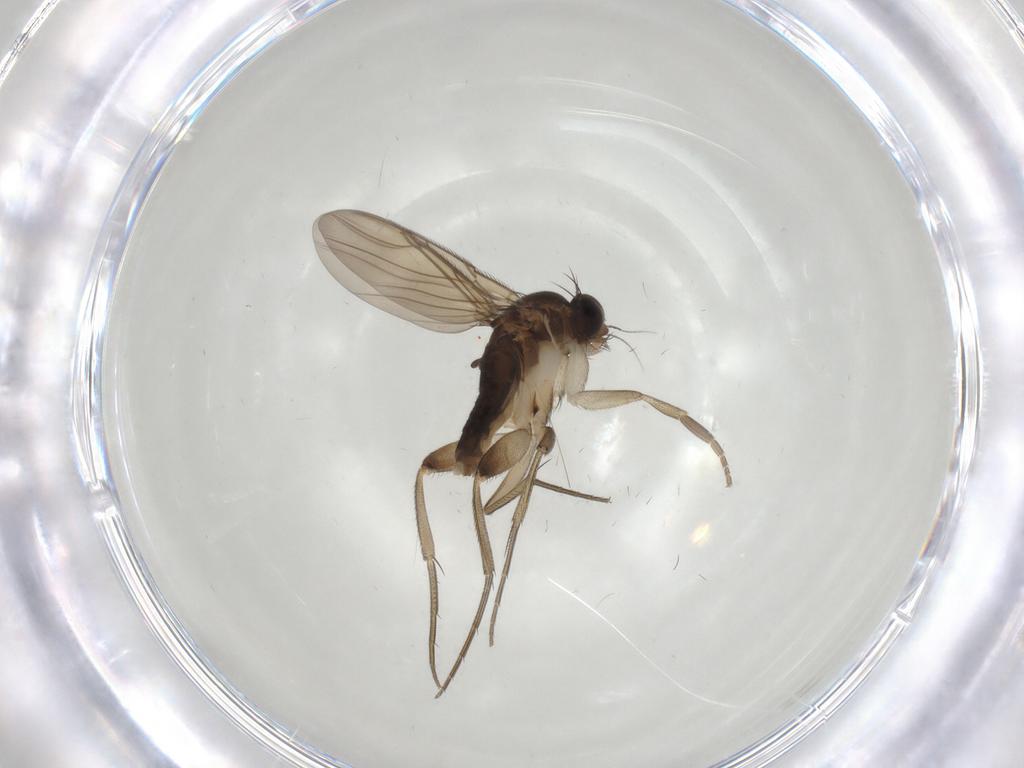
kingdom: Animalia
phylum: Arthropoda
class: Insecta
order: Diptera
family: Phoridae
